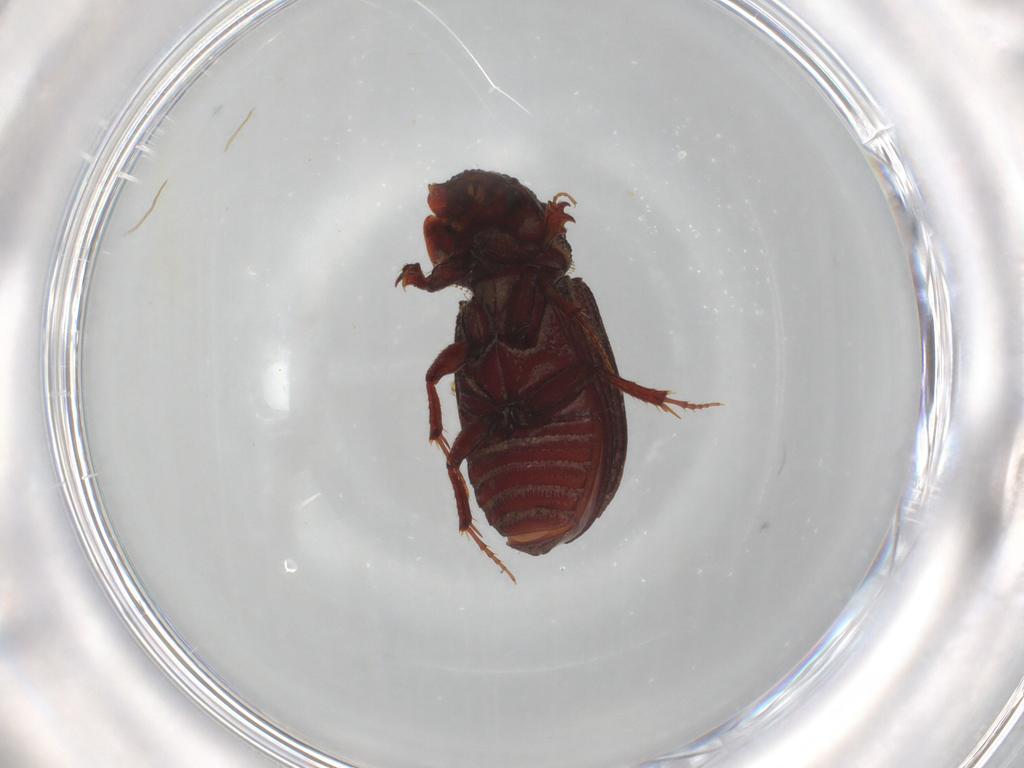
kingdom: Animalia
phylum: Arthropoda
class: Insecta
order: Coleoptera
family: Scarabaeidae
